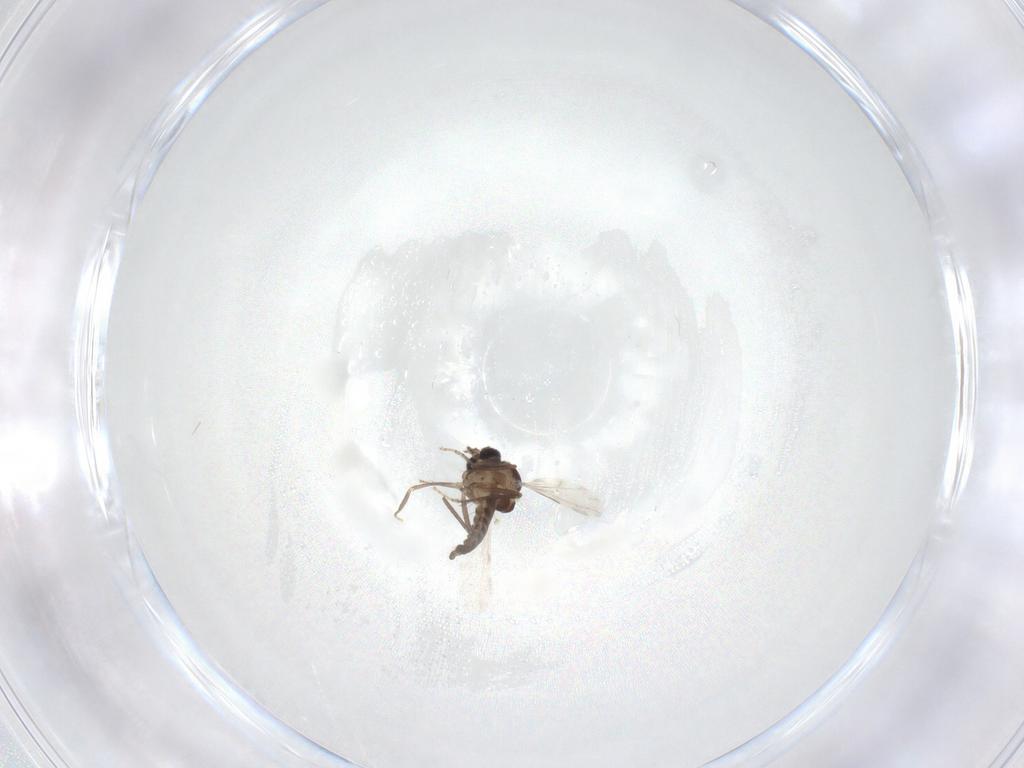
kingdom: Animalia
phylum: Arthropoda
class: Insecta
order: Diptera
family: Ceratopogonidae
